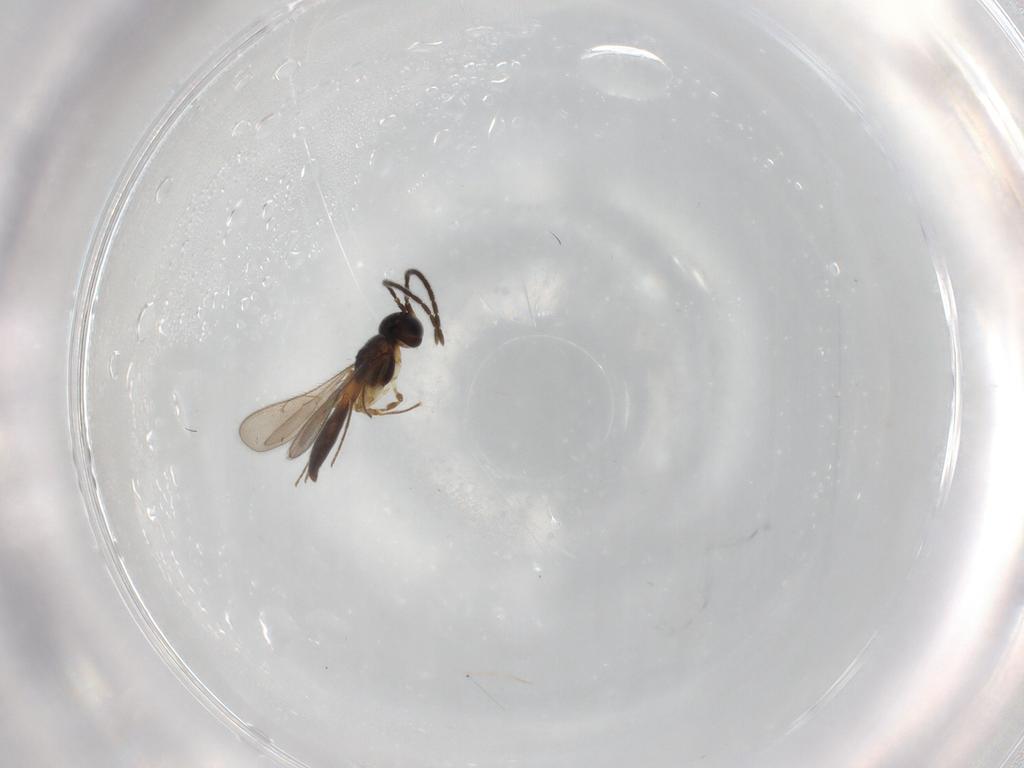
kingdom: Animalia
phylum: Arthropoda
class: Insecta
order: Hymenoptera
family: Scelionidae
